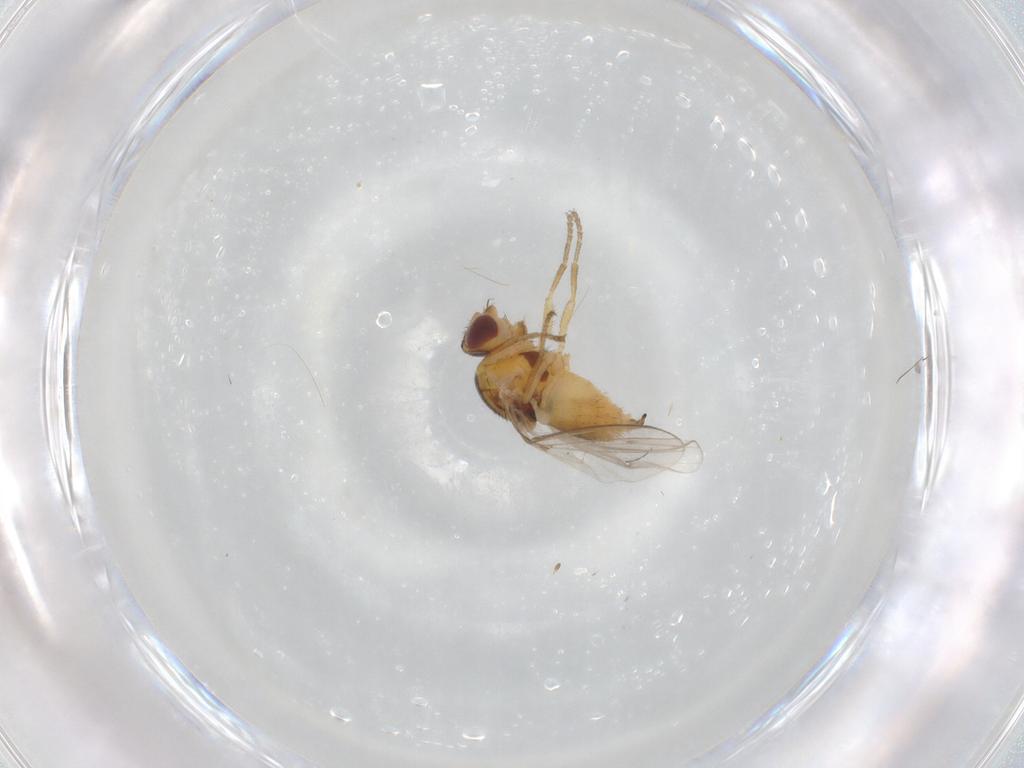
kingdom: Animalia
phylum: Arthropoda
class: Insecta
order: Diptera
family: Chloropidae
